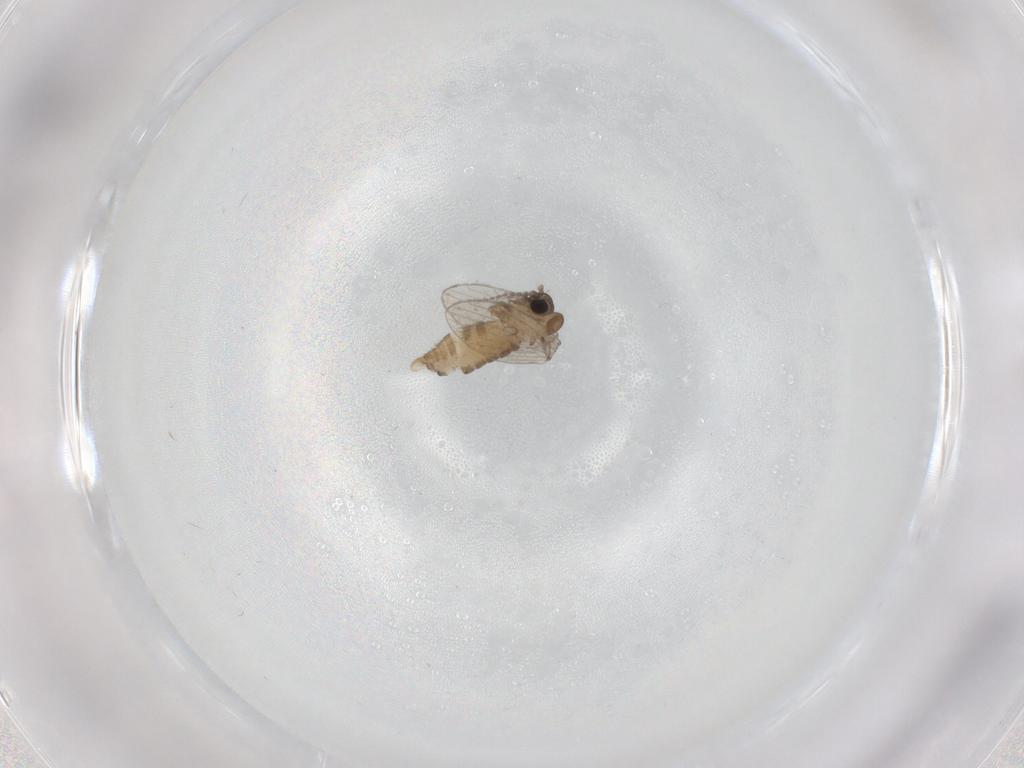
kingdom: Animalia
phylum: Arthropoda
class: Insecta
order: Diptera
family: Psychodidae
